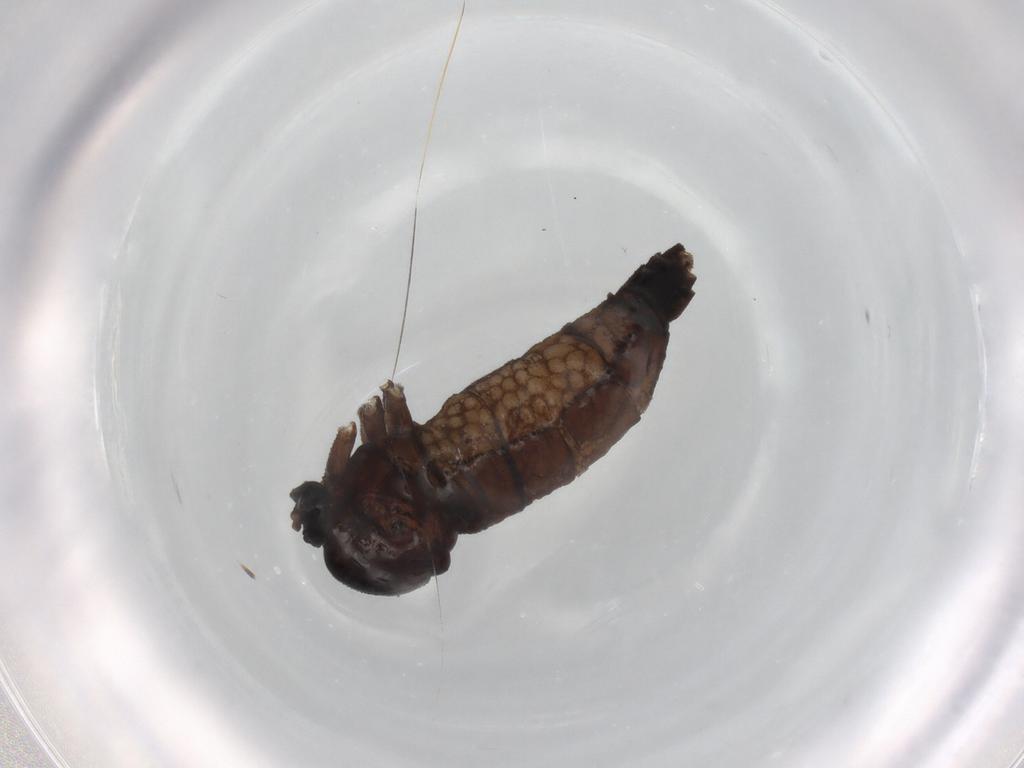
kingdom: Animalia
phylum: Arthropoda
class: Insecta
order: Diptera
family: Sciaridae
